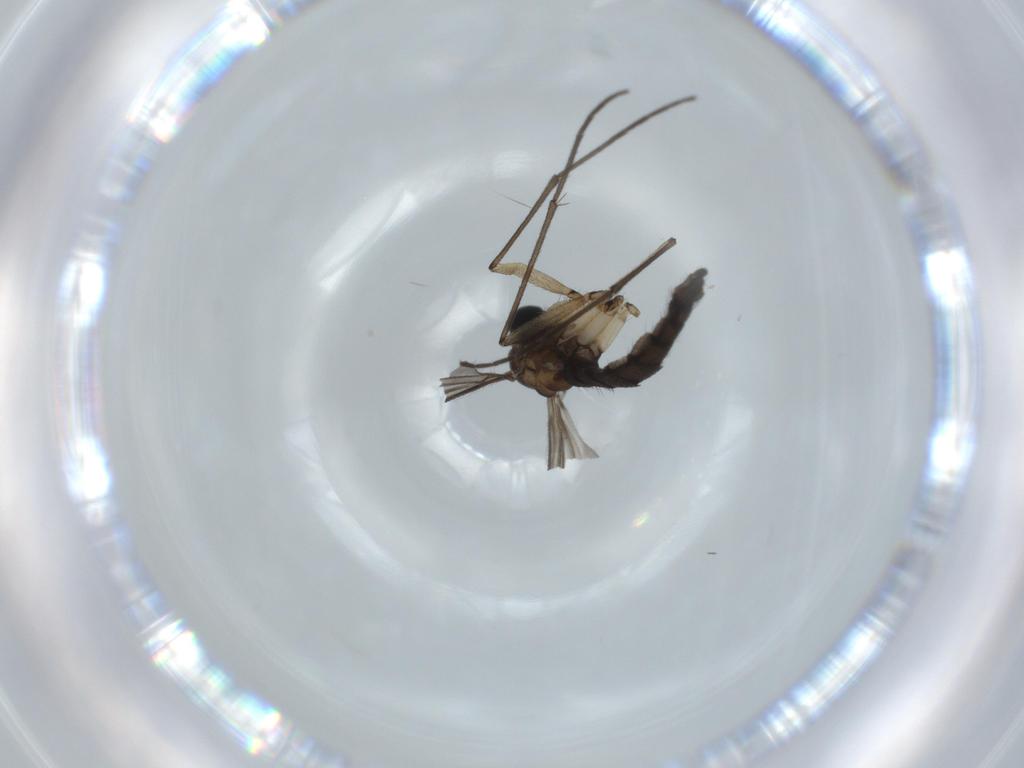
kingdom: Animalia
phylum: Arthropoda
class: Insecta
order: Diptera
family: Sciaridae
